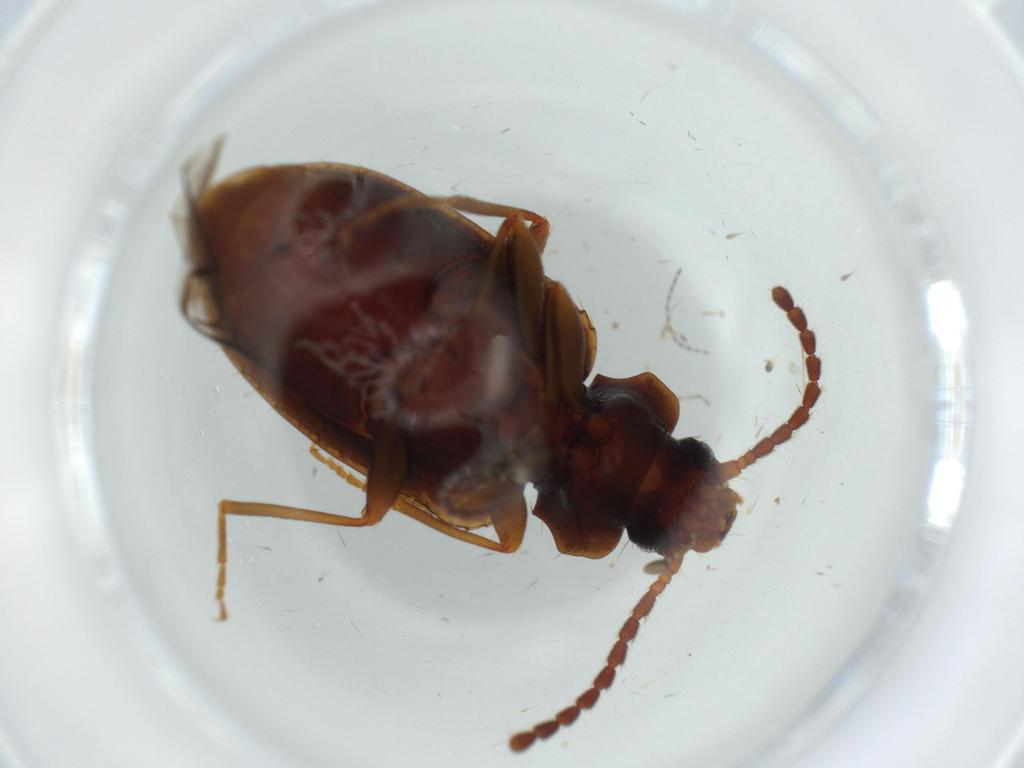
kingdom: Animalia
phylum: Arthropoda
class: Insecta
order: Coleoptera
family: Tenebrionidae
